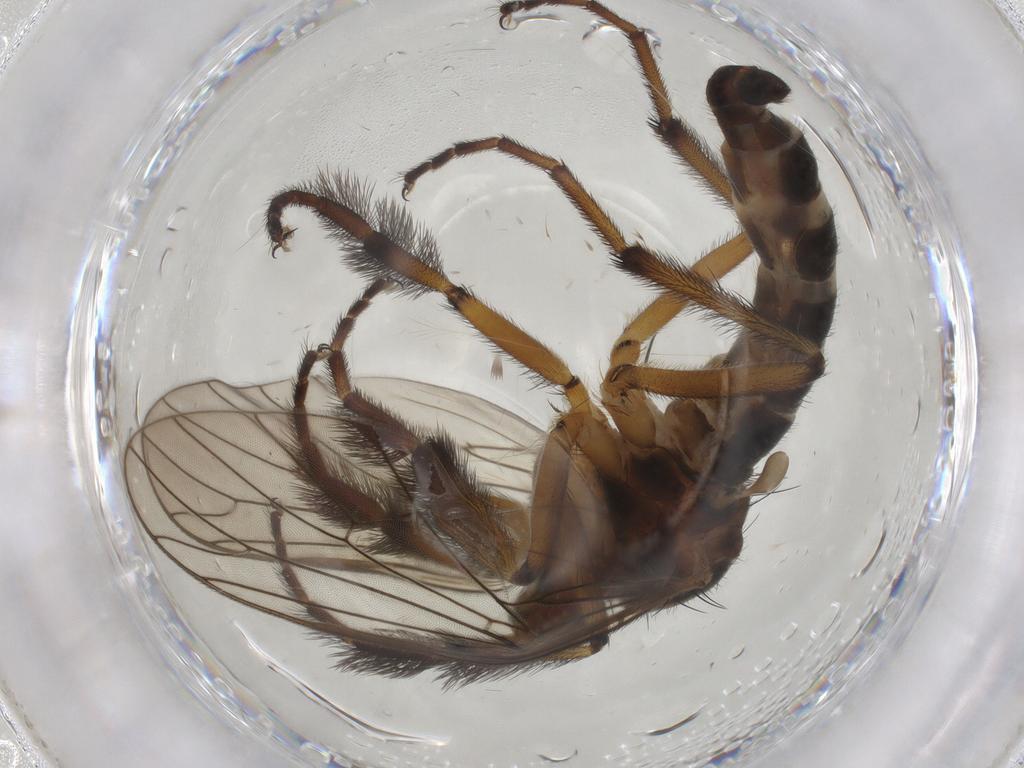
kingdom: Animalia
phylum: Arthropoda
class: Insecta
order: Diptera
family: Empididae
